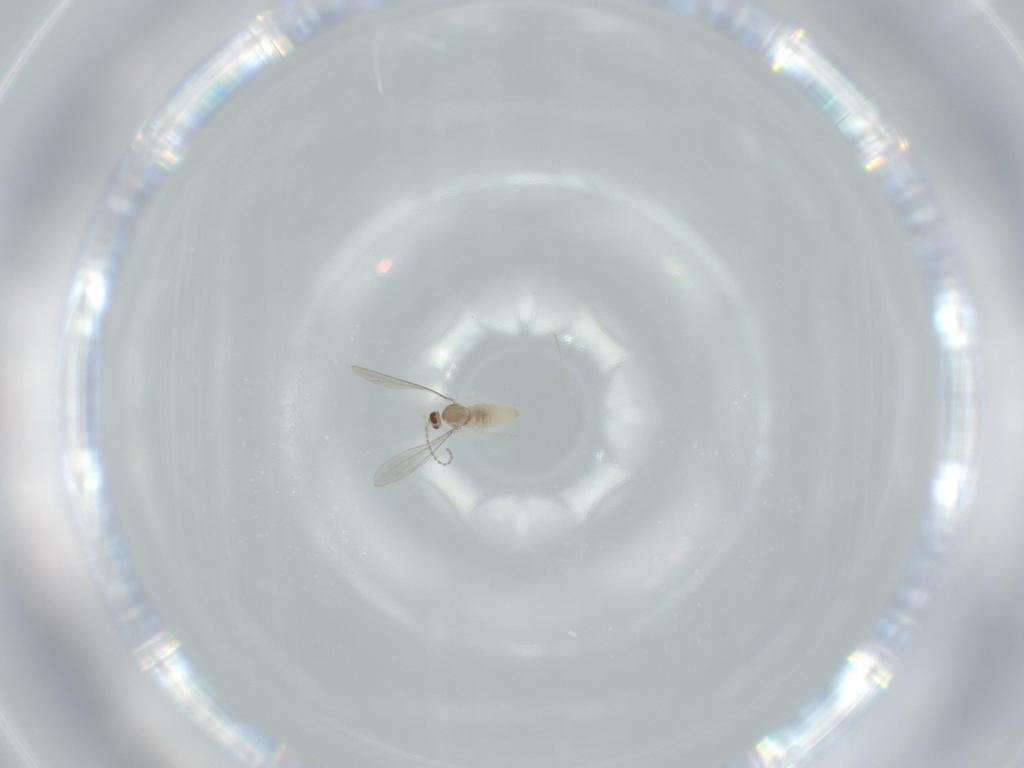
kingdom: Animalia
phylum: Arthropoda
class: Insecta
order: Diptera
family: Cecidomyiidae
